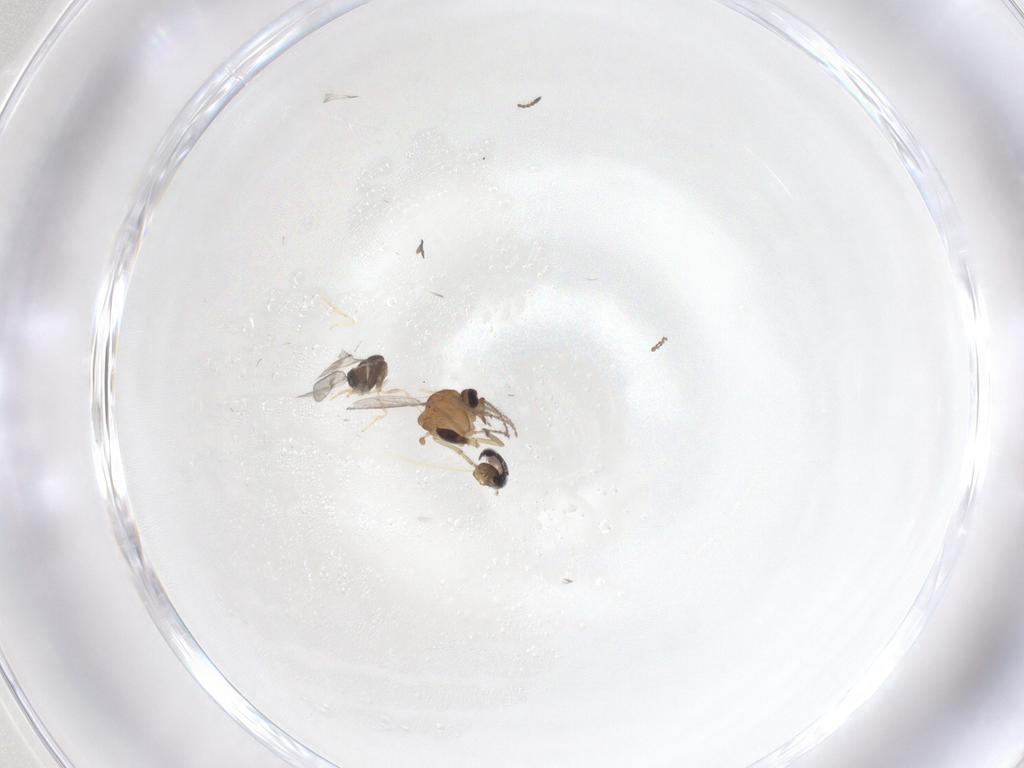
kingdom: Animalia
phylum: Arthropoda
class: Insecta
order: Hymenoptera
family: Scelionidae
